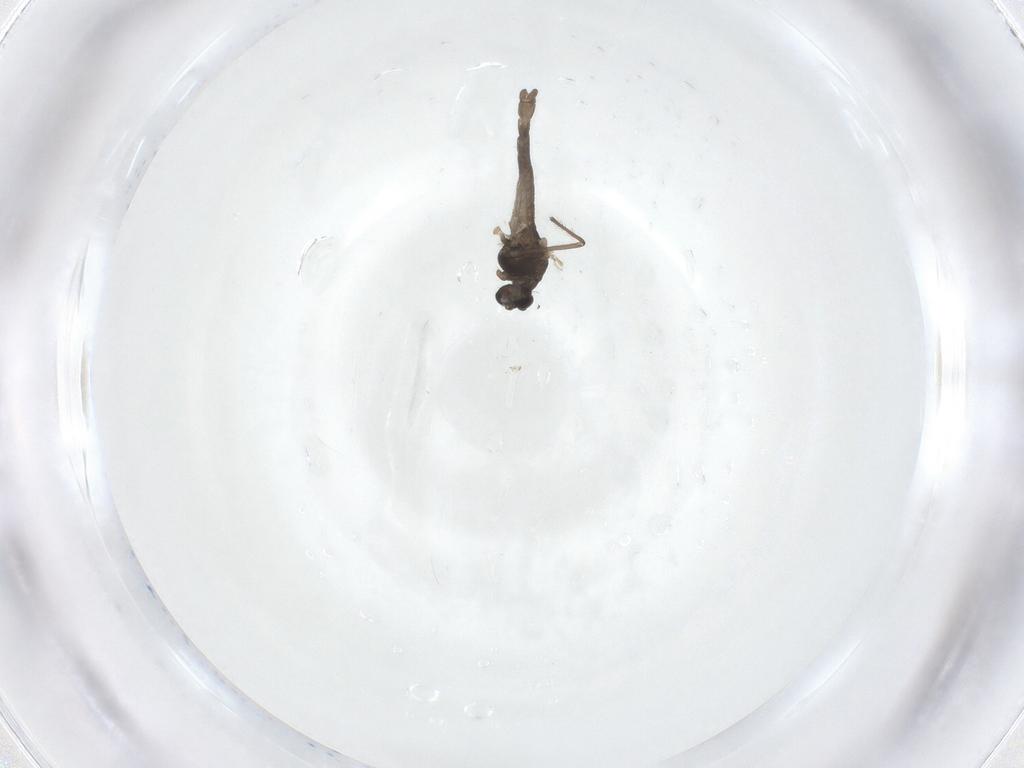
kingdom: Animalia
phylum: Arthropoda
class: Insecta
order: Diptera
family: Chironomidae
